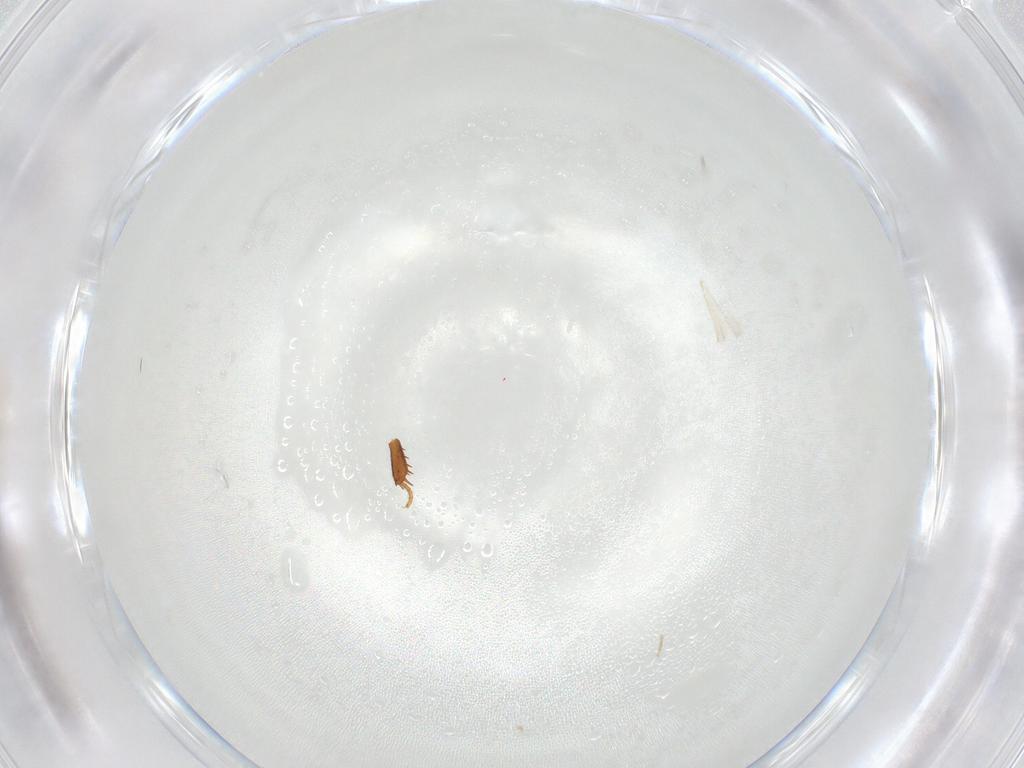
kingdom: Animalia
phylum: Arthropoda
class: Insecta
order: Coleoptera
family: Hydrophilidae
